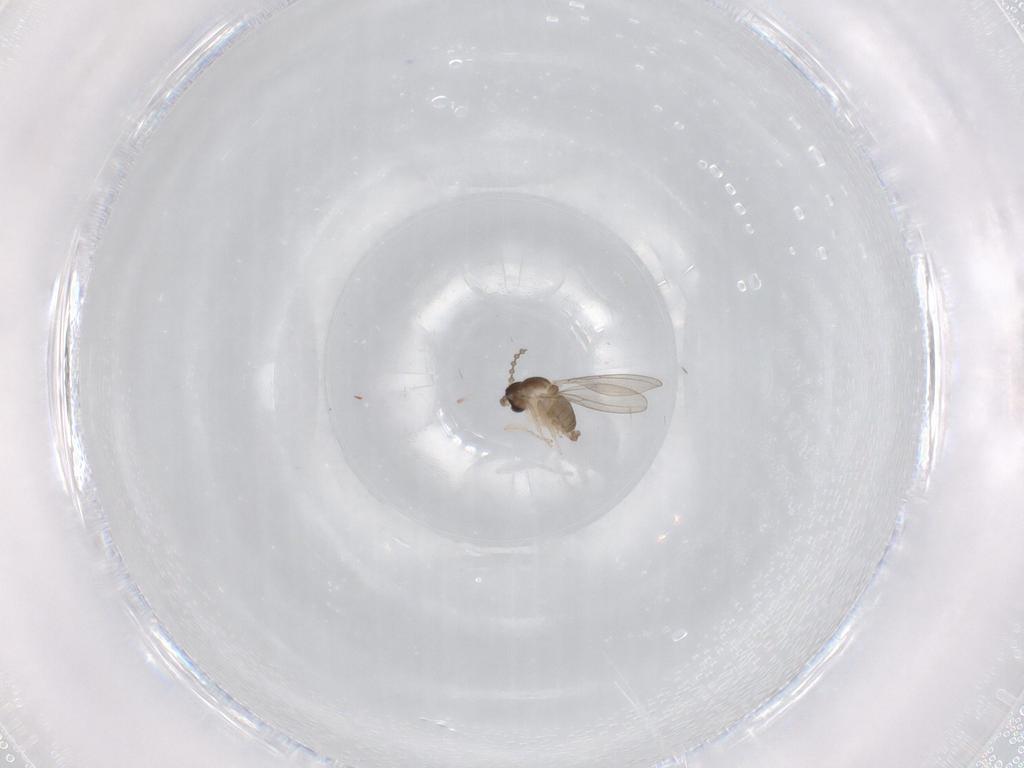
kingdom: Animalia
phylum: Arthropoda
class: Insecta
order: Diptera
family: Cecidomyiidae
